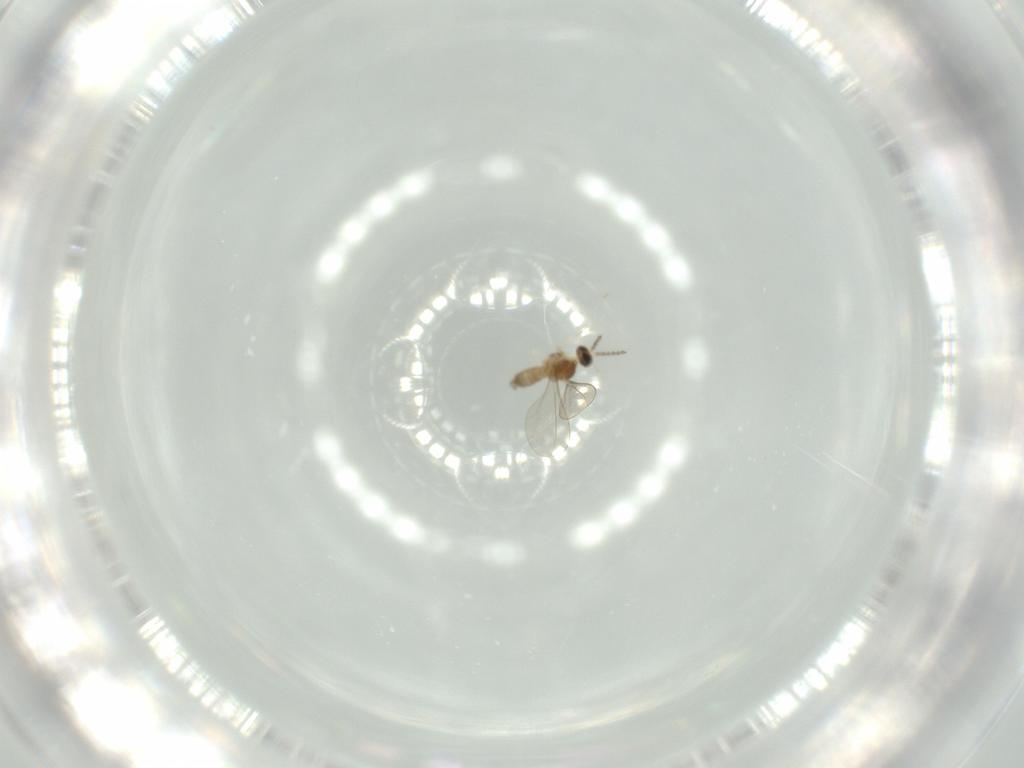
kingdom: Animalia
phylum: Arthropoda
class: Insecta
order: Diptera
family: Cecidomyiidae
